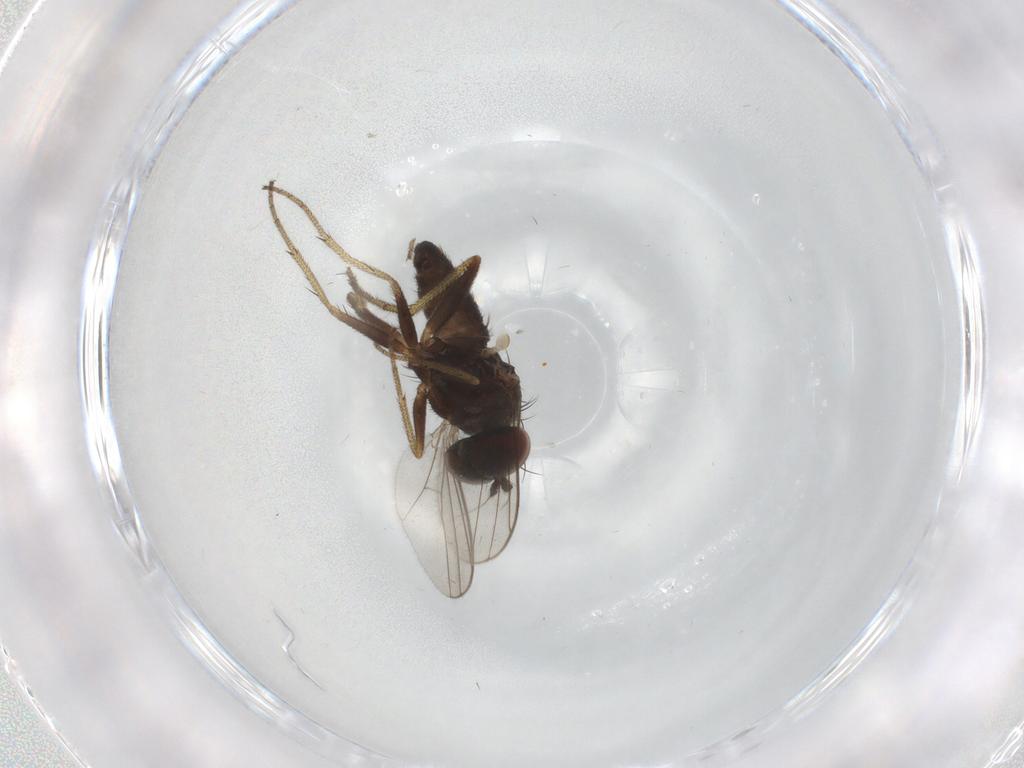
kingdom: Animalia
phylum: Arthropoda
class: Insecta
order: Diptera
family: Dolichopodidae
